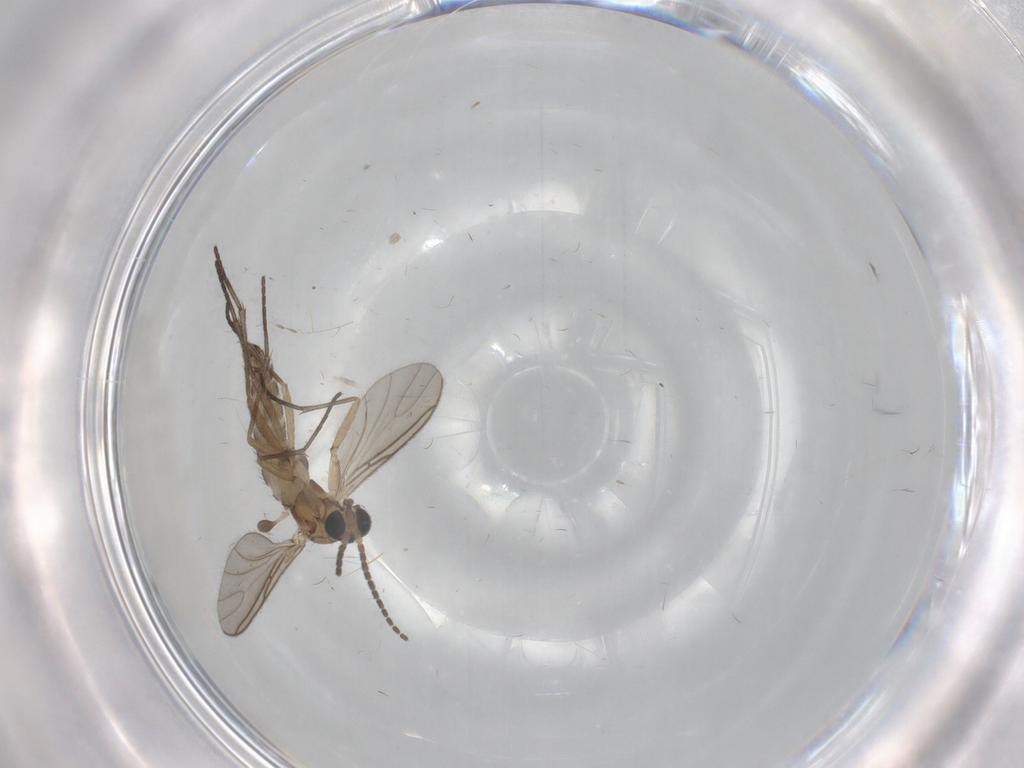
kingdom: Animalia
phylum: Arthropoda
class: Insecta
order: Diptera
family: Sciaridae
